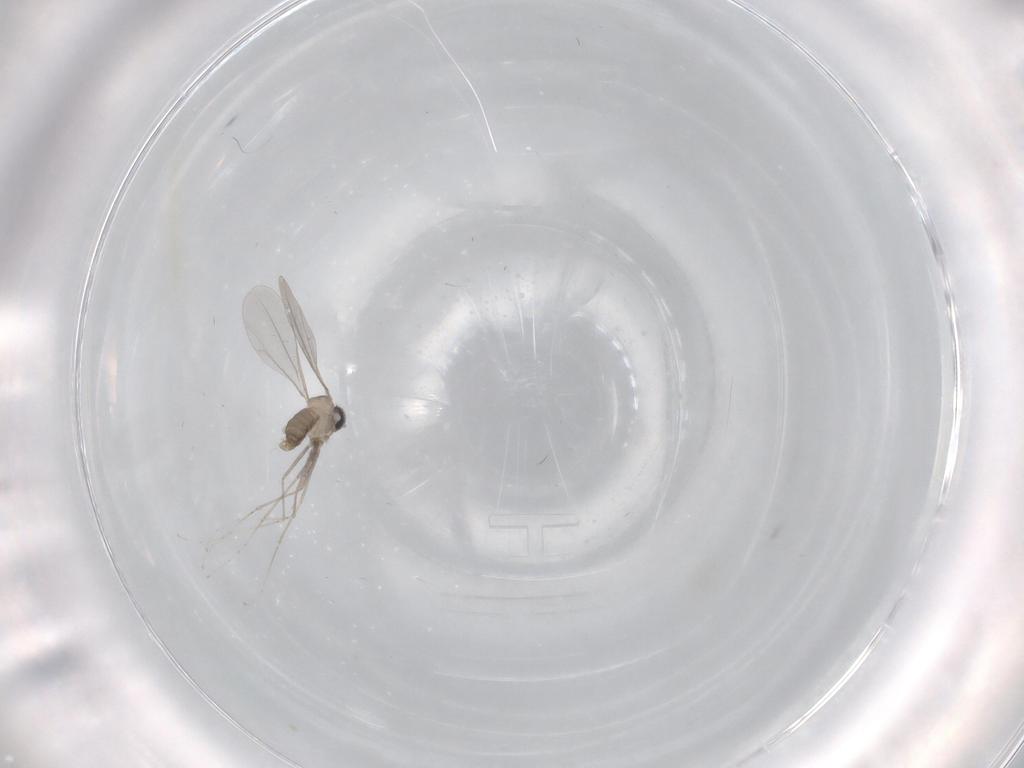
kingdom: Animalia
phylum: Arthropoda
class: Insecta
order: Diptera
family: Cecidomyiidae
